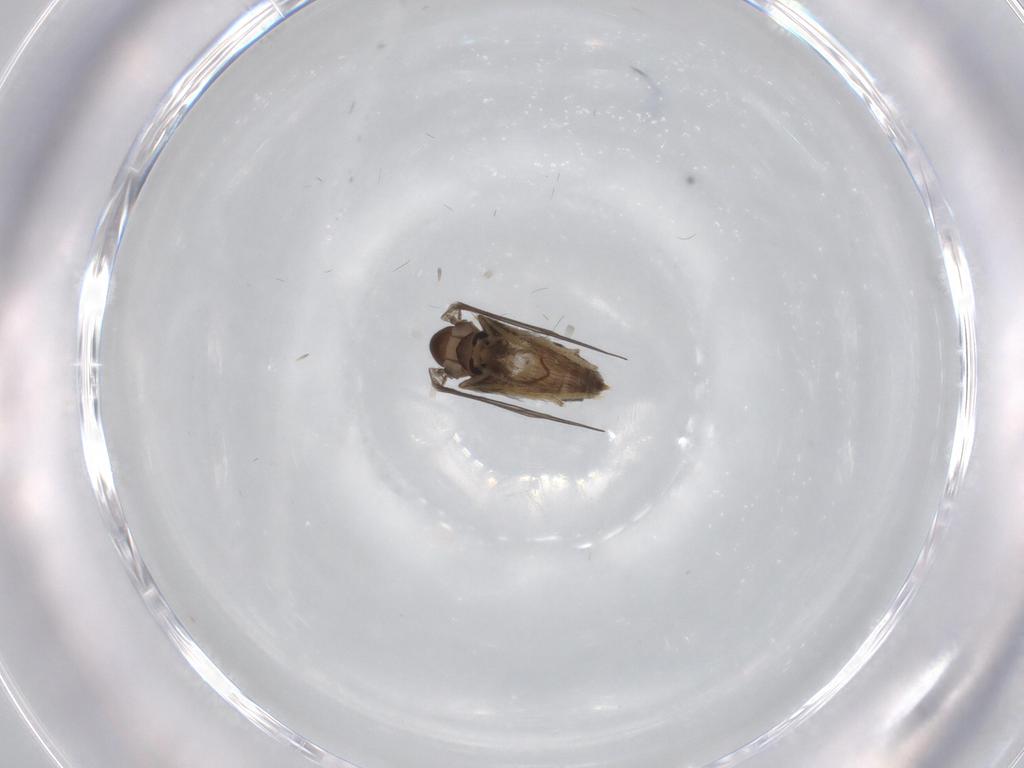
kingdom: Animalia
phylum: Arthropoda
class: Insecta
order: Diptera
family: Psychodidae
